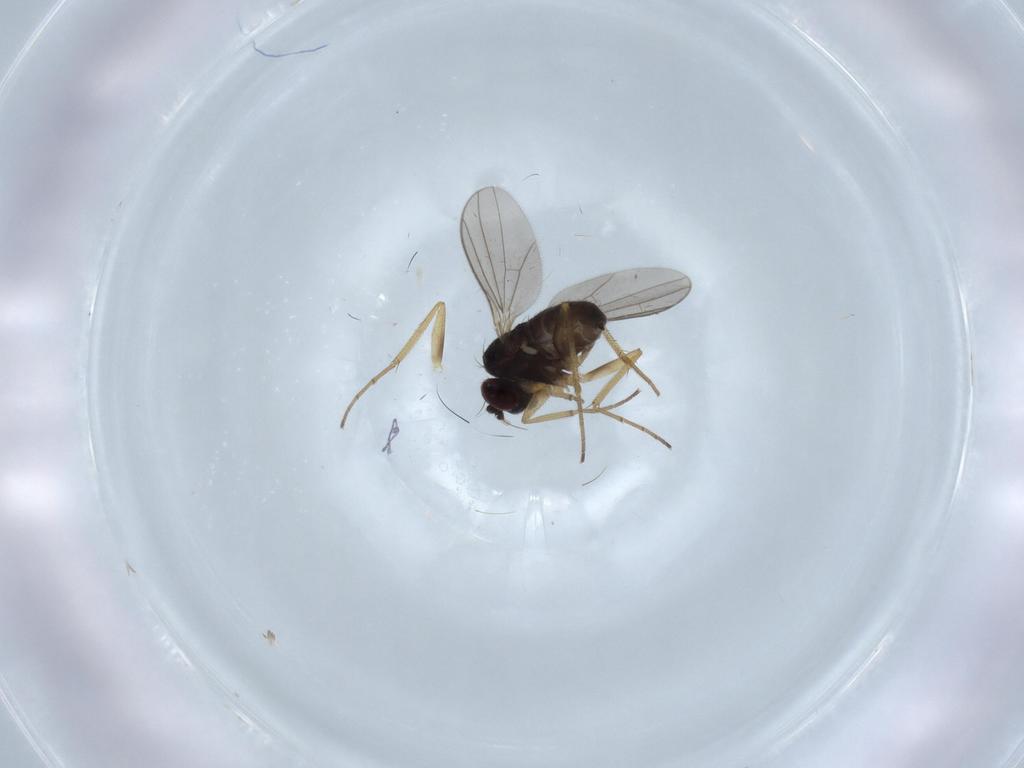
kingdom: Animalia
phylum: Arthropoda
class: Insecta
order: Diptera
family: Dolichopodidae
